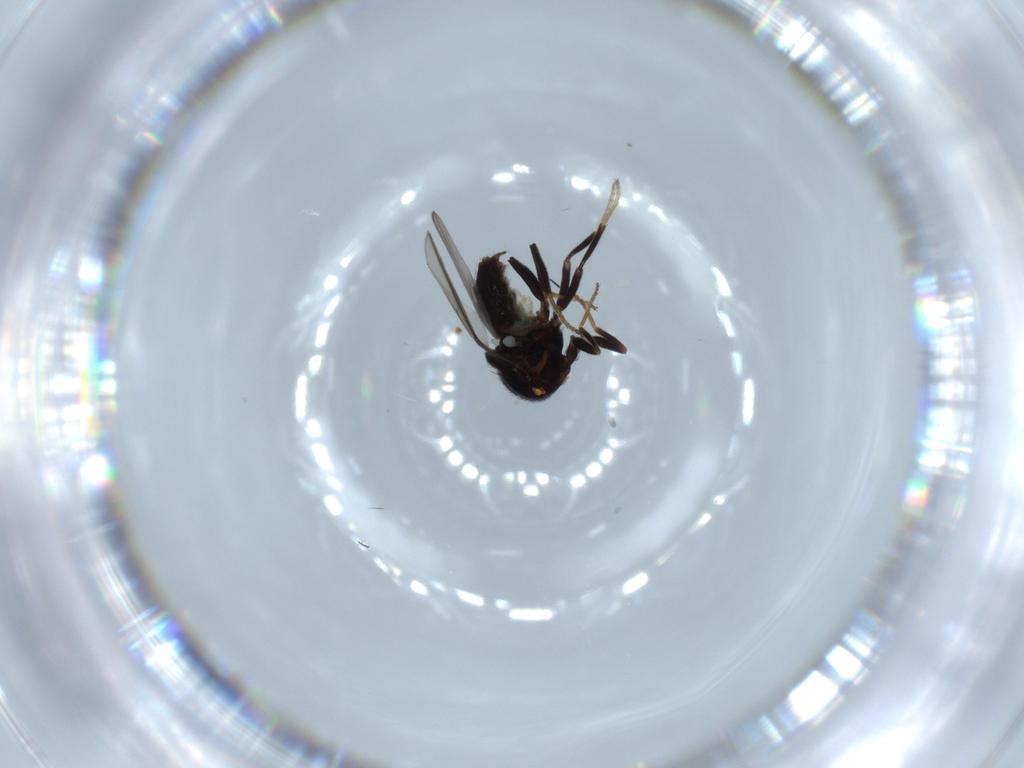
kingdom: Animalia
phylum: Arthropoda
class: Insecta
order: Diptera
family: Chloropidae
